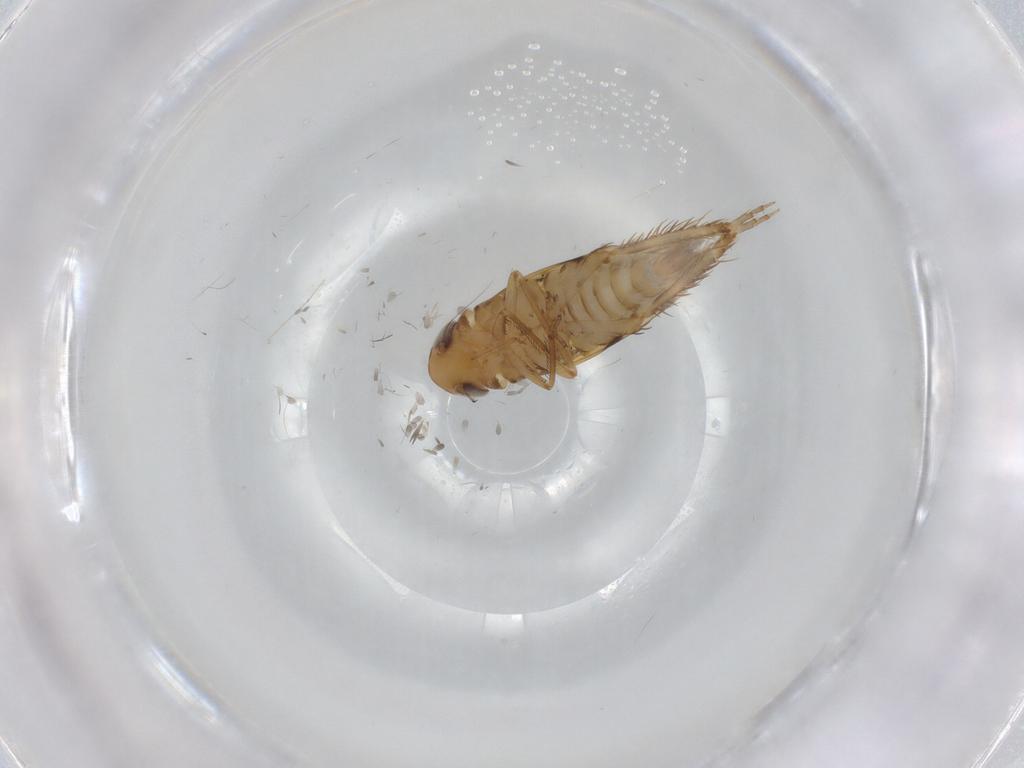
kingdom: Animalia
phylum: Arthropoda
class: Insecta
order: Hemiptera
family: Cicadellidae
